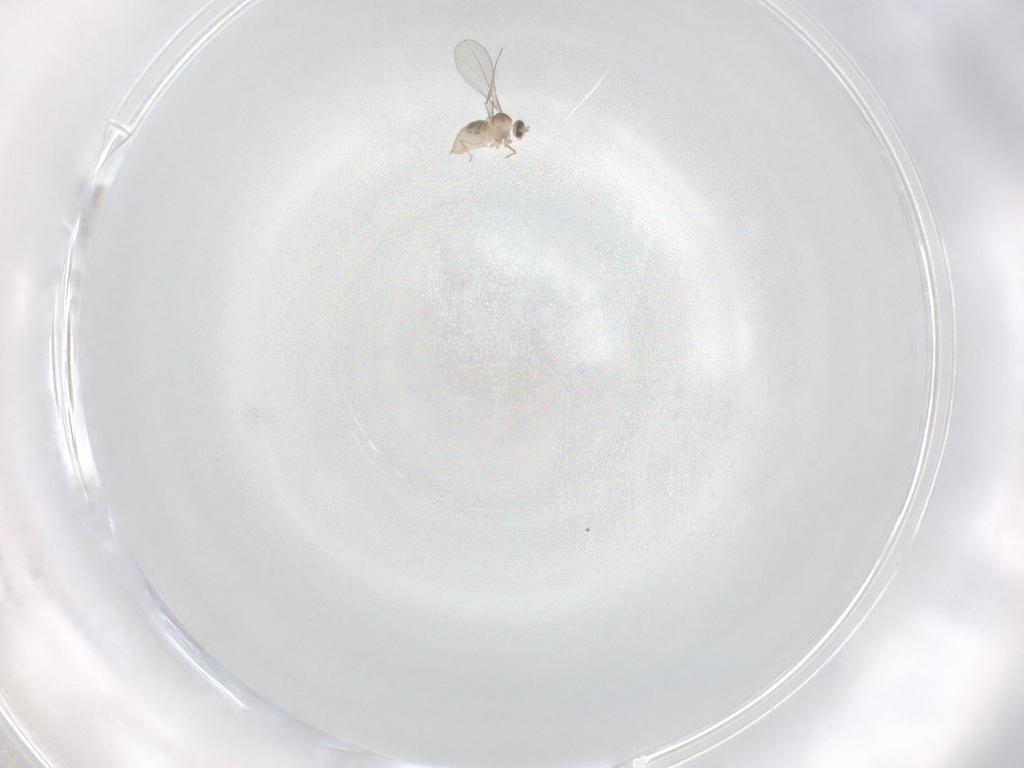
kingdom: Animalia
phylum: Arthropoda
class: Insecta
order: Diptera
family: Cecidomyiidae
